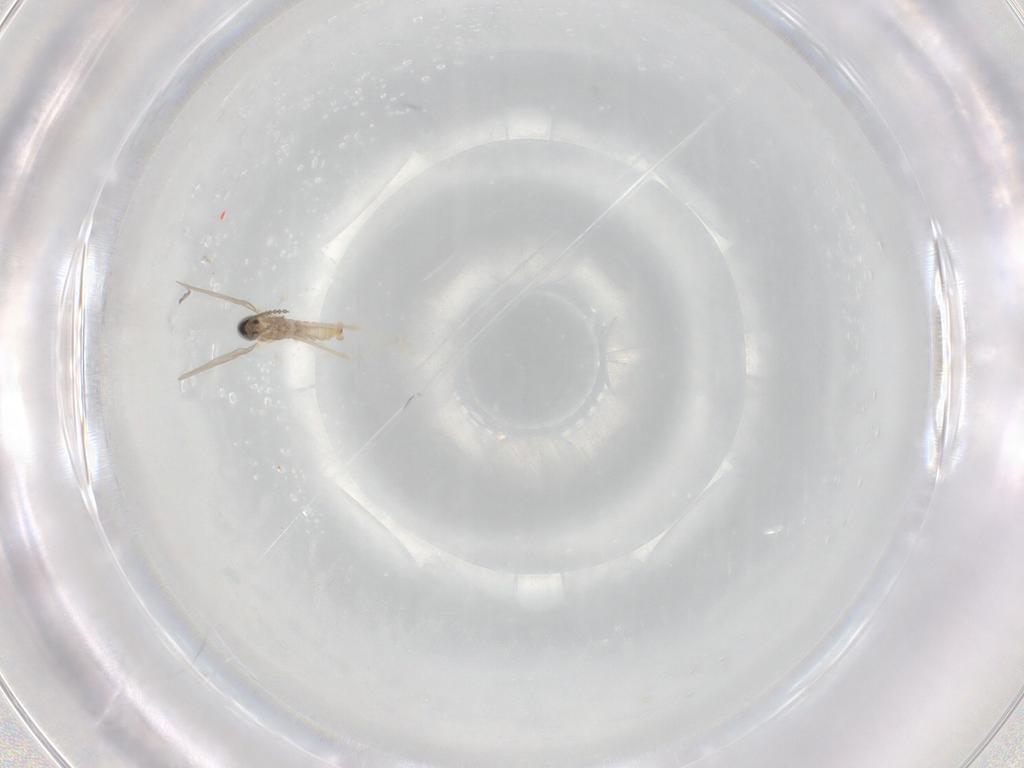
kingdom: Animalia
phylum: Arthropoda
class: Insecta
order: Diptera
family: Cecidomyiidae
